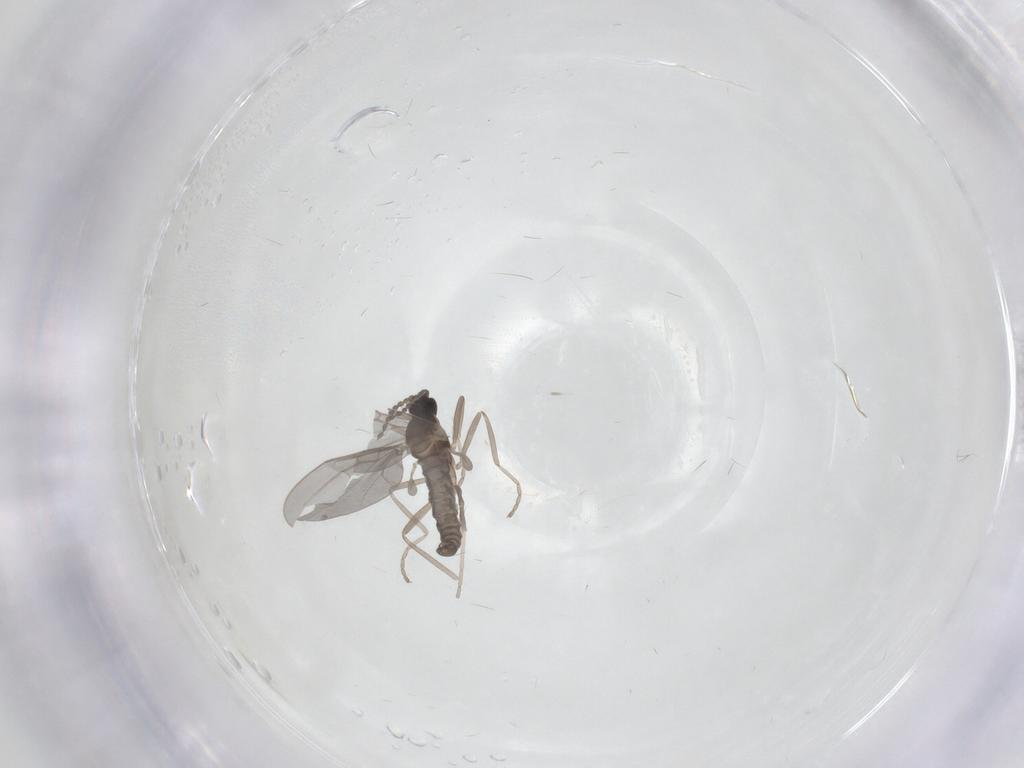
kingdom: Animalia
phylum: Arthropoda
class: Insecta
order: Diptera
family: Chironomidae
